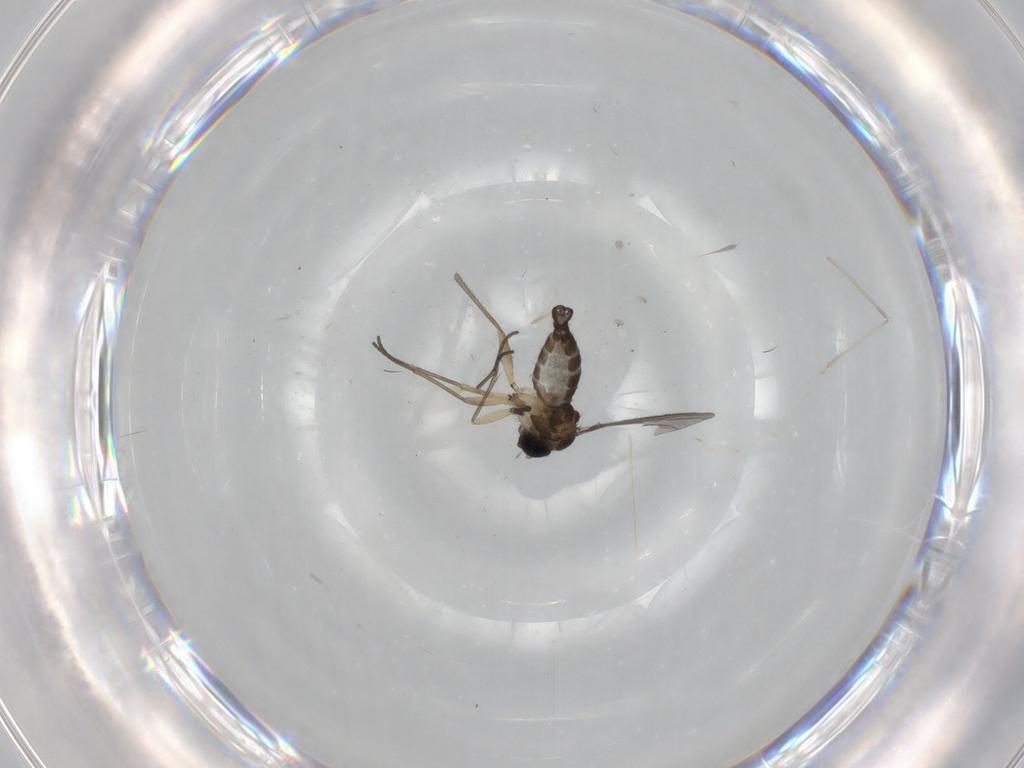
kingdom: Animalia
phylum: Arthropoda
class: Insecta
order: Diptera
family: Sciaridae
